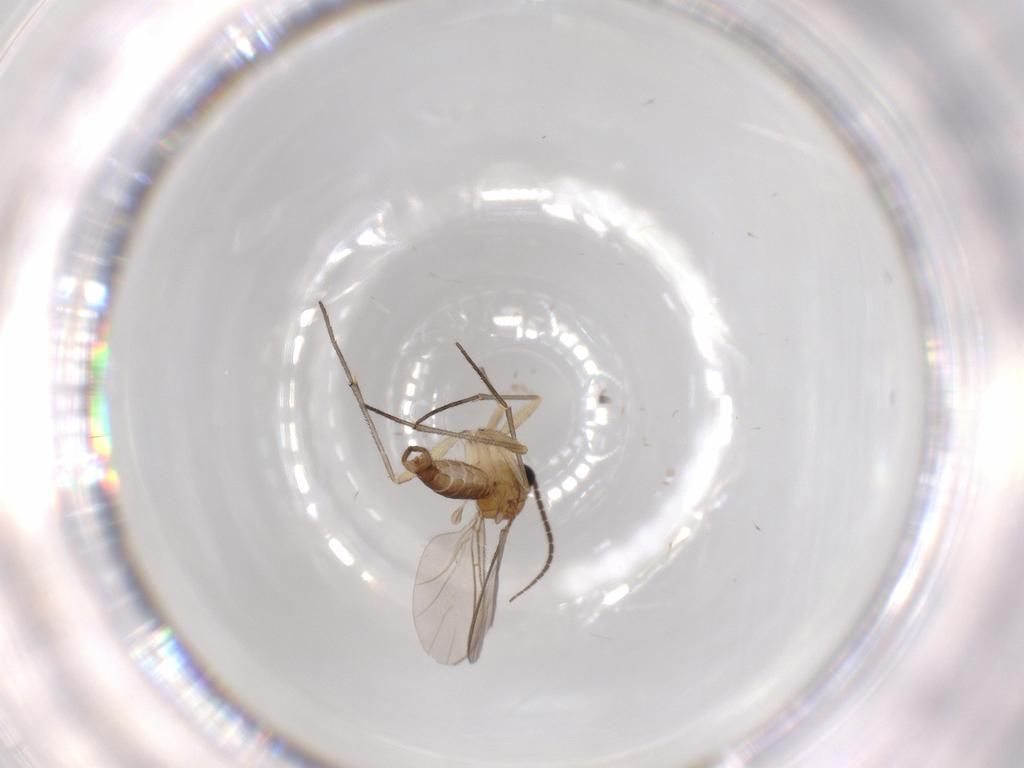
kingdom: Animalia
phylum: Arthropoda
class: Insecta
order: Diptera
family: Sciaridae
